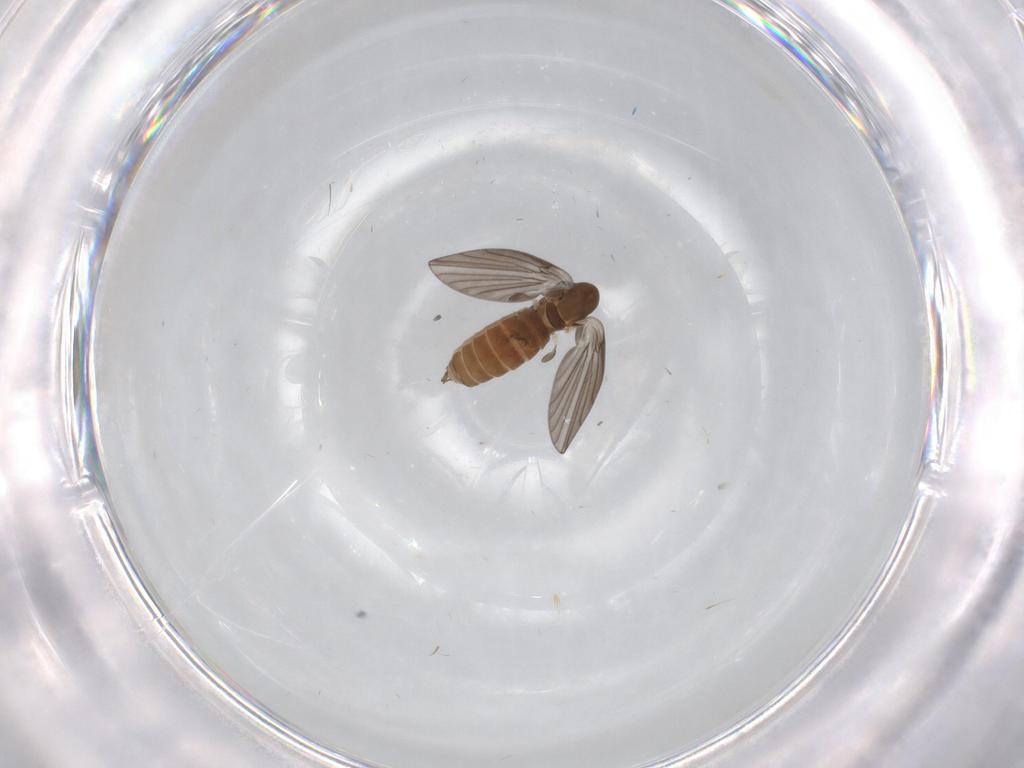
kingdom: Animalia
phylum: Arthropoda
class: Insecta
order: Diptera
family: Psychodidae
